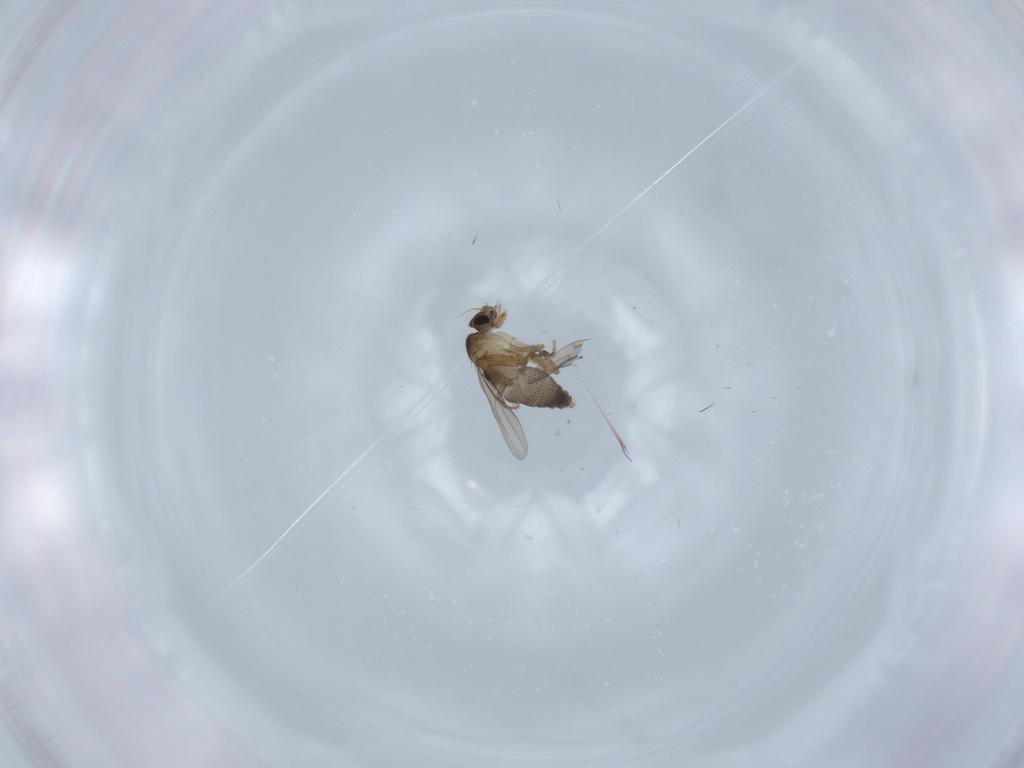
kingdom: Animalia
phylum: Arthropoda
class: Insecta
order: Diptera
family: Phoridae
